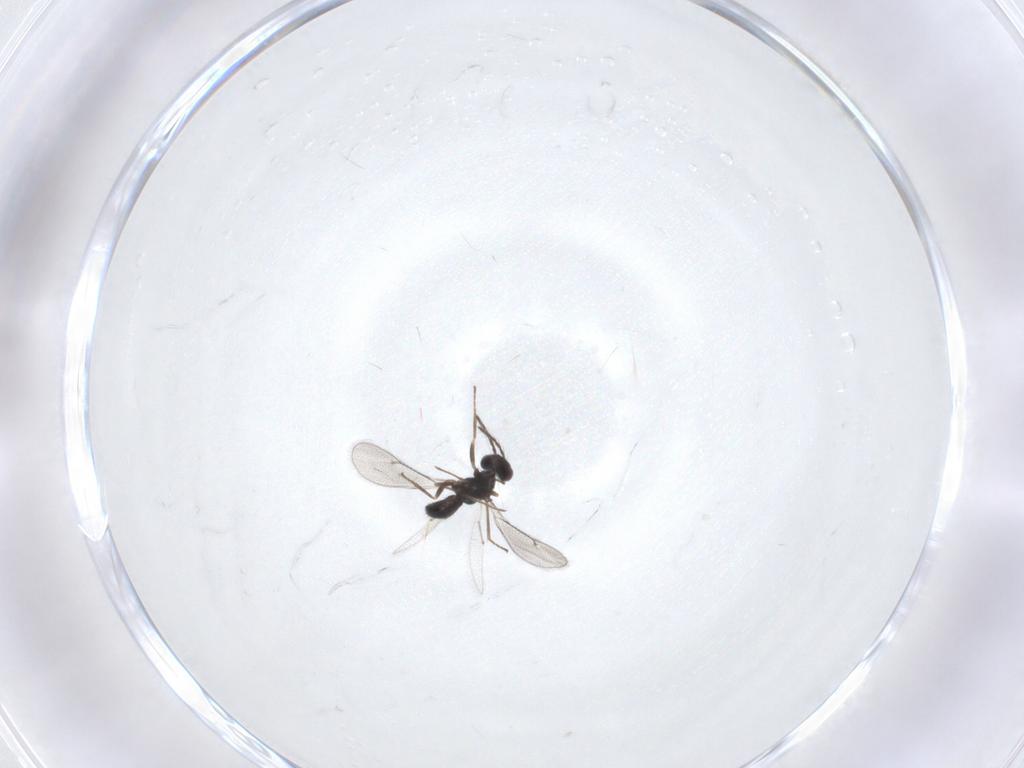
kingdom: Animalia
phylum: Arthropoda
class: Insecta
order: Hymenoptera
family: Eulophidae
